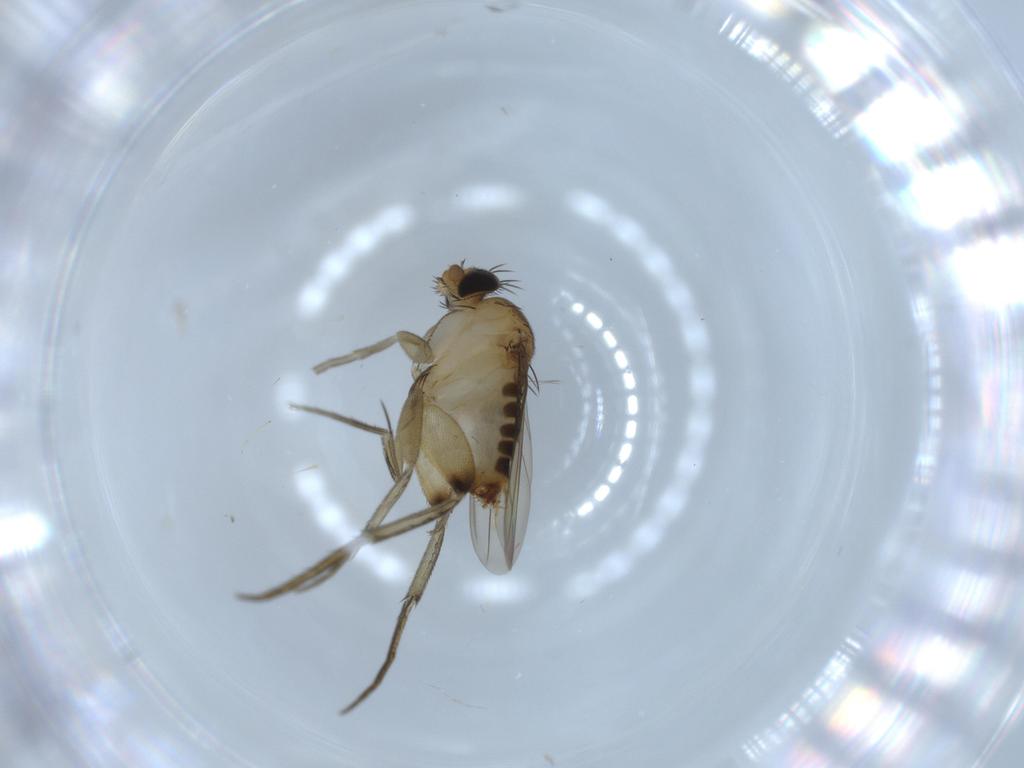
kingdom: Animalia
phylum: Arthropoda
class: Insecta
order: Diptera
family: Phoridae
